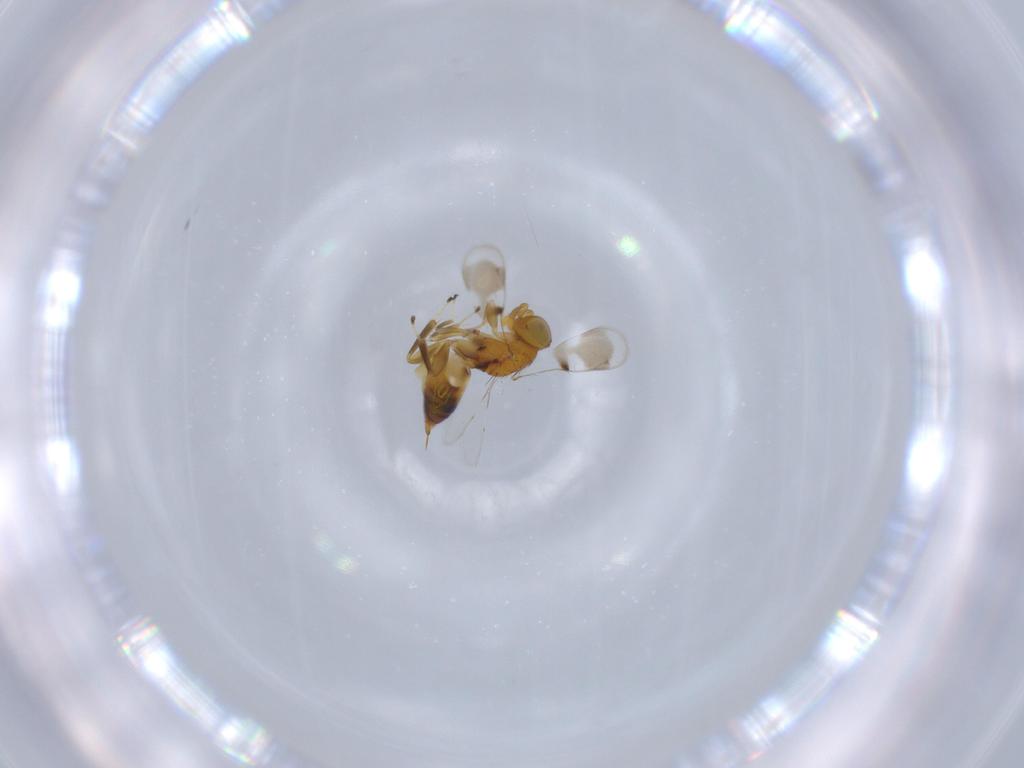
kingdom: Animalia
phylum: Arthropoda
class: Insecta
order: Hymenoptera
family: Pteromalidae
